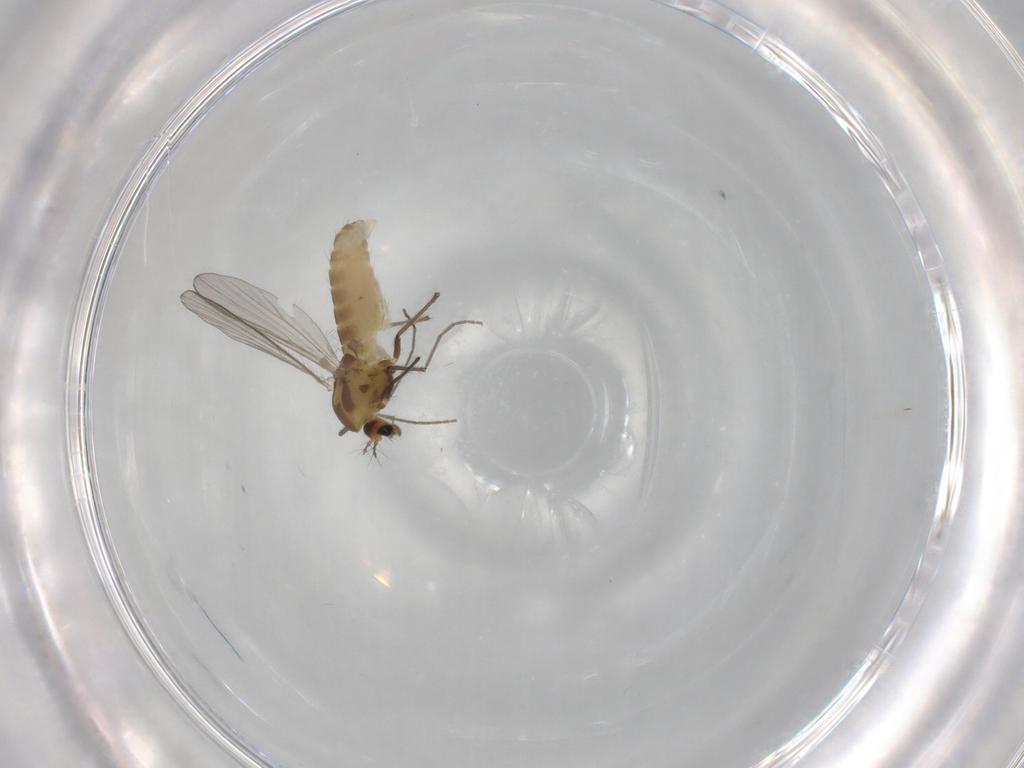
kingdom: Animalia
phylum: Arthropoda
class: Insecta
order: Diptera
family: Chironomidae
